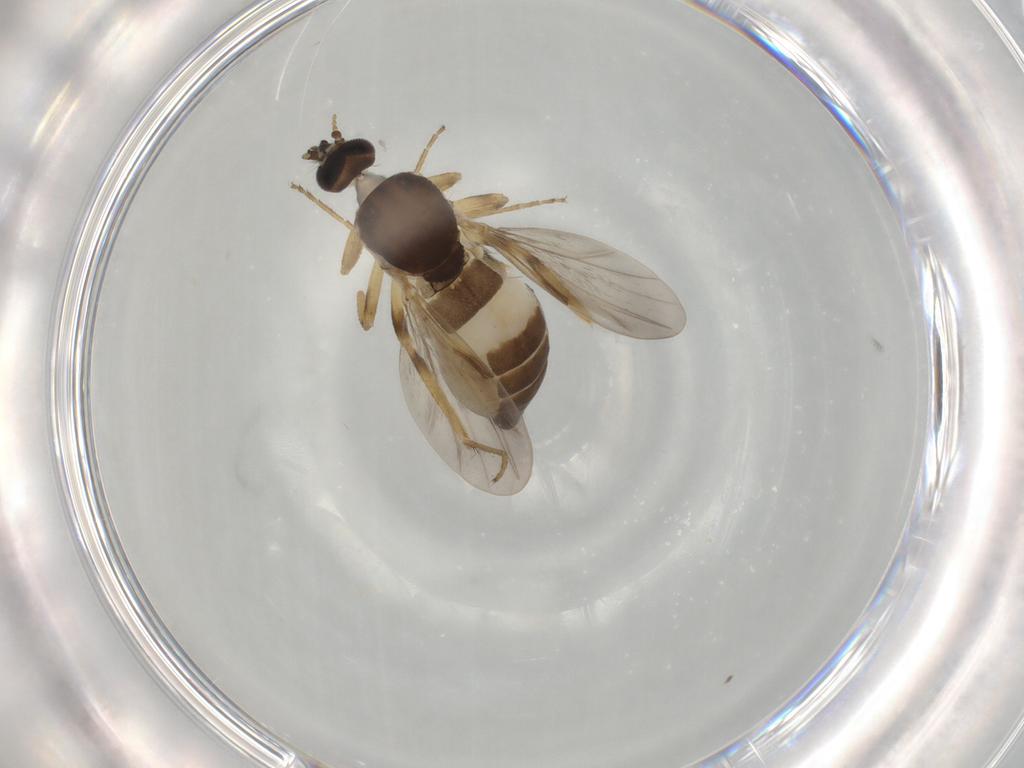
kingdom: Animalia
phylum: Arthropoda
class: Insecta
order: Diptera
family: Ceratopogonidae
